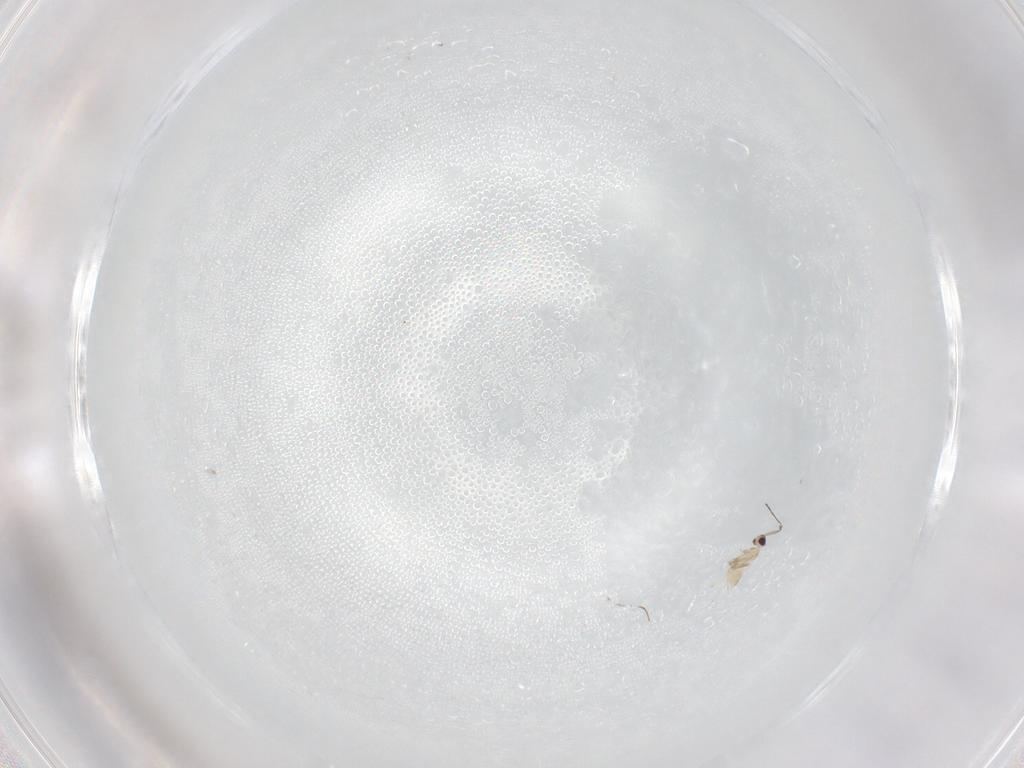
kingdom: Animalia
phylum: Arthropoda
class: Insecta
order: Hymenoptera
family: Mymaridae
